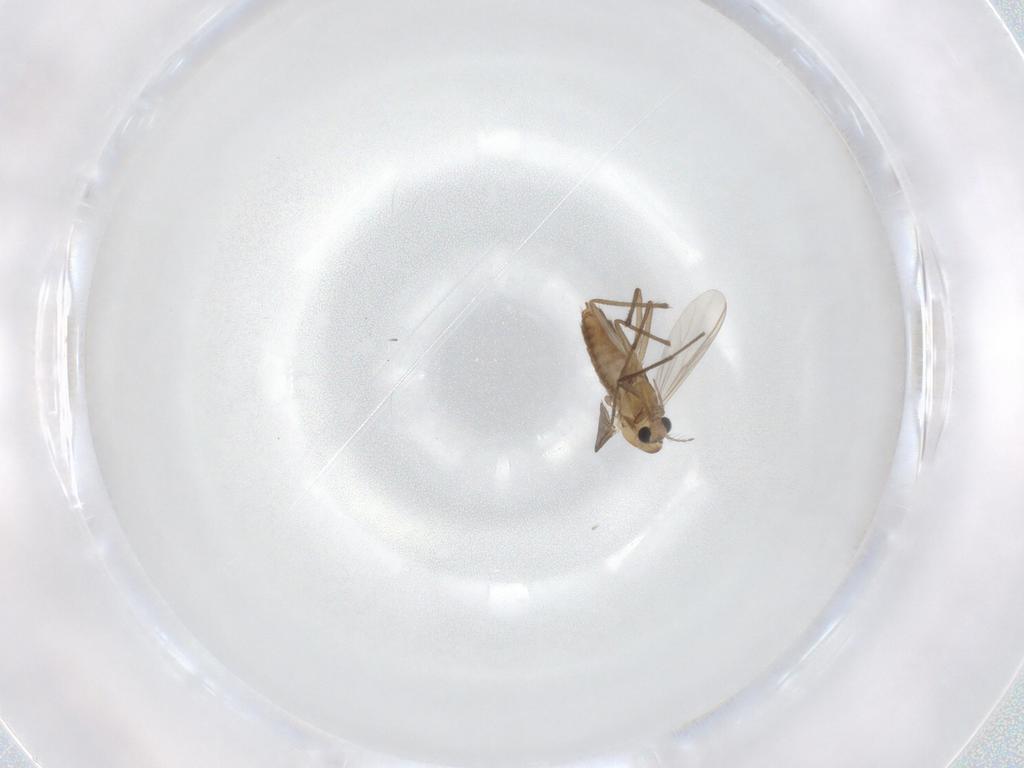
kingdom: Animalia
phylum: Arthropoda
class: Insecta
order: Diptera
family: Chironomidae
